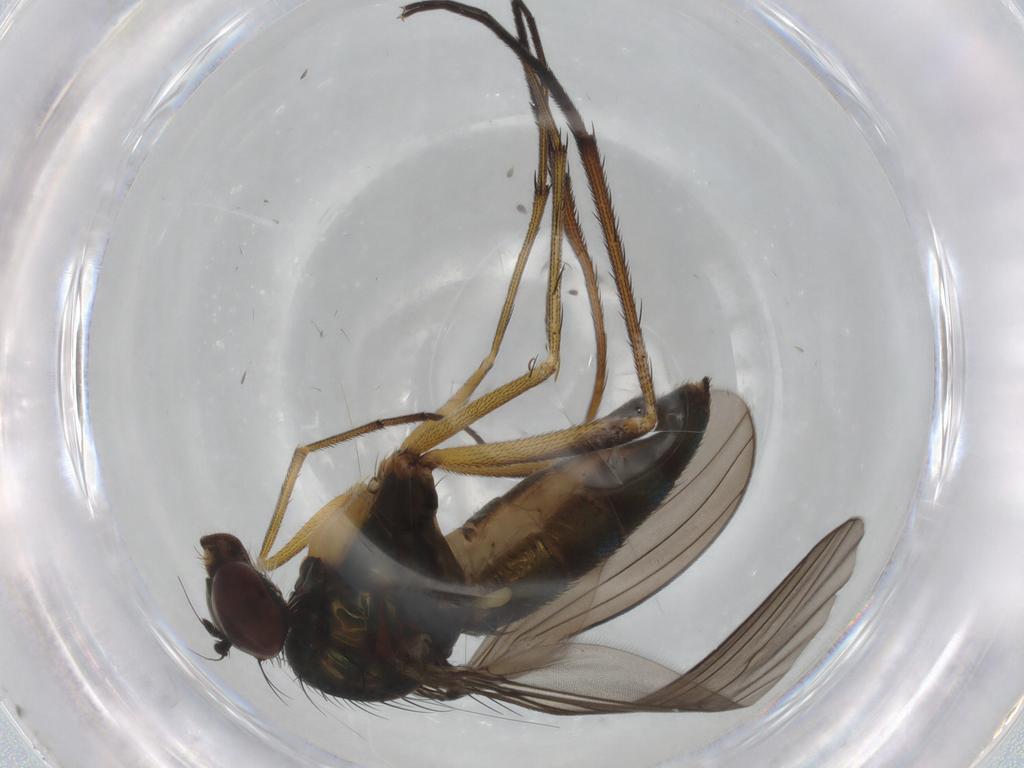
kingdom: Animalia
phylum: Arthropoda
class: Insecta
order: Diptera
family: Dolichopodidae
